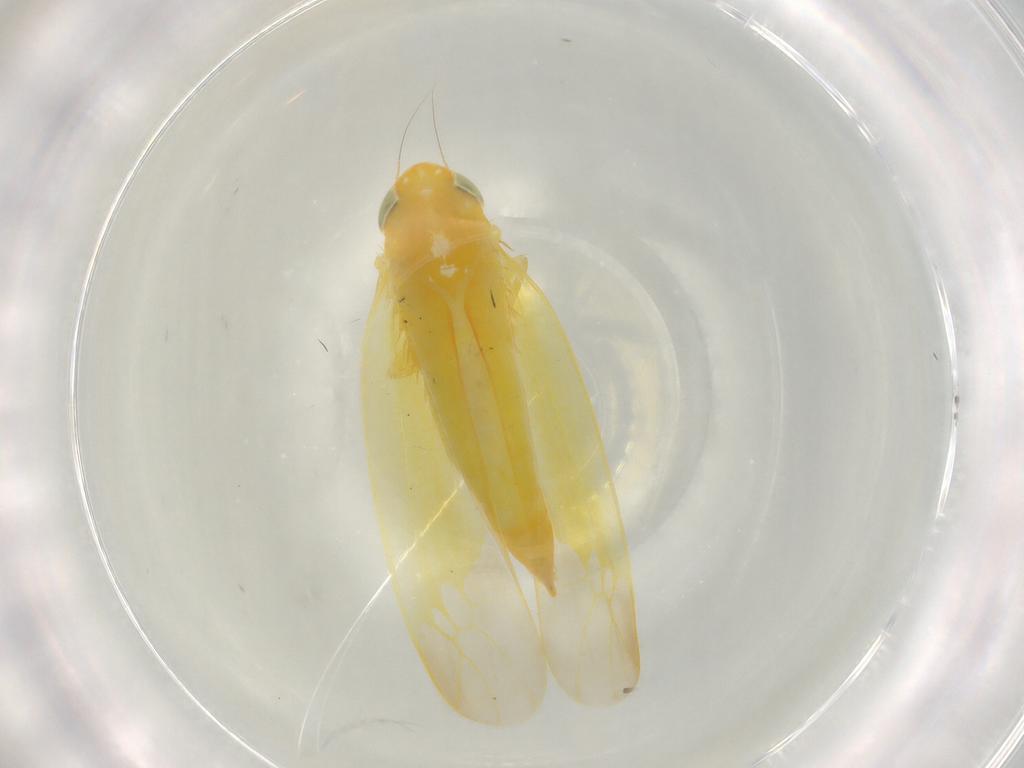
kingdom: Animalia
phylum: Arthropoda
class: Insecta
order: Hemiptera
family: Cicadellidae
